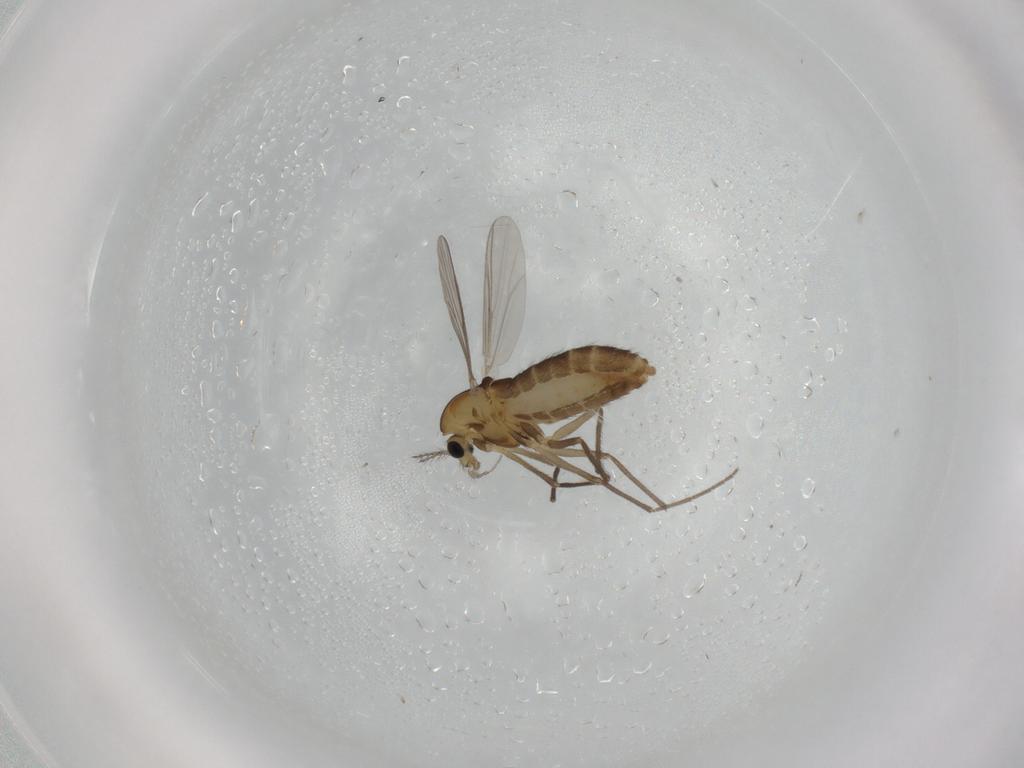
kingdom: Animalia
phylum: Arthropoda
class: Insecta
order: Diptera
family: Chironomidae
